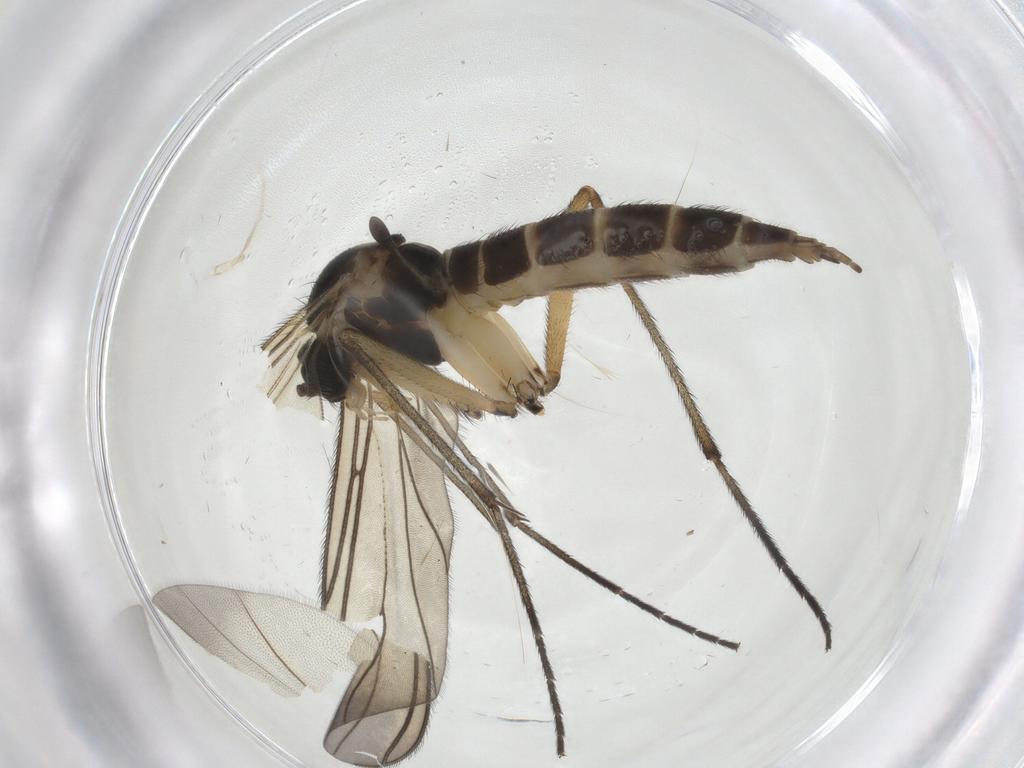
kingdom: Animalia
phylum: Arthropoda
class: Insecta
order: Diptera
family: Sciaridae
